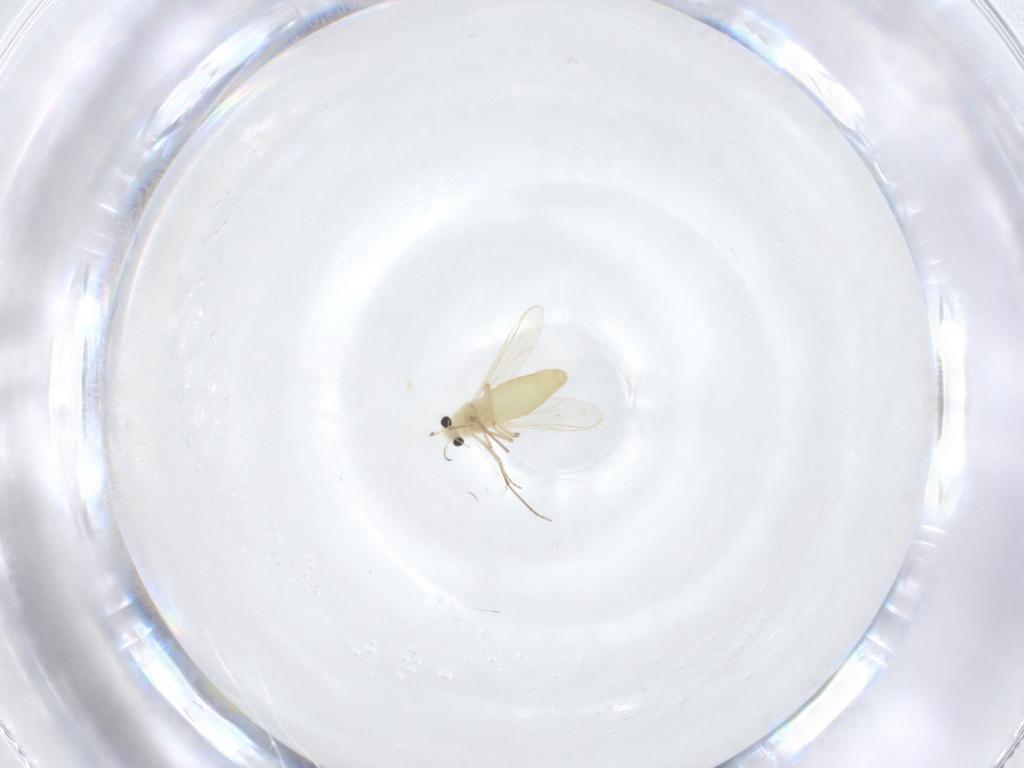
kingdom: Animalia
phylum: Arthropoda
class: Insecta
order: Diptera
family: Chironomidae
